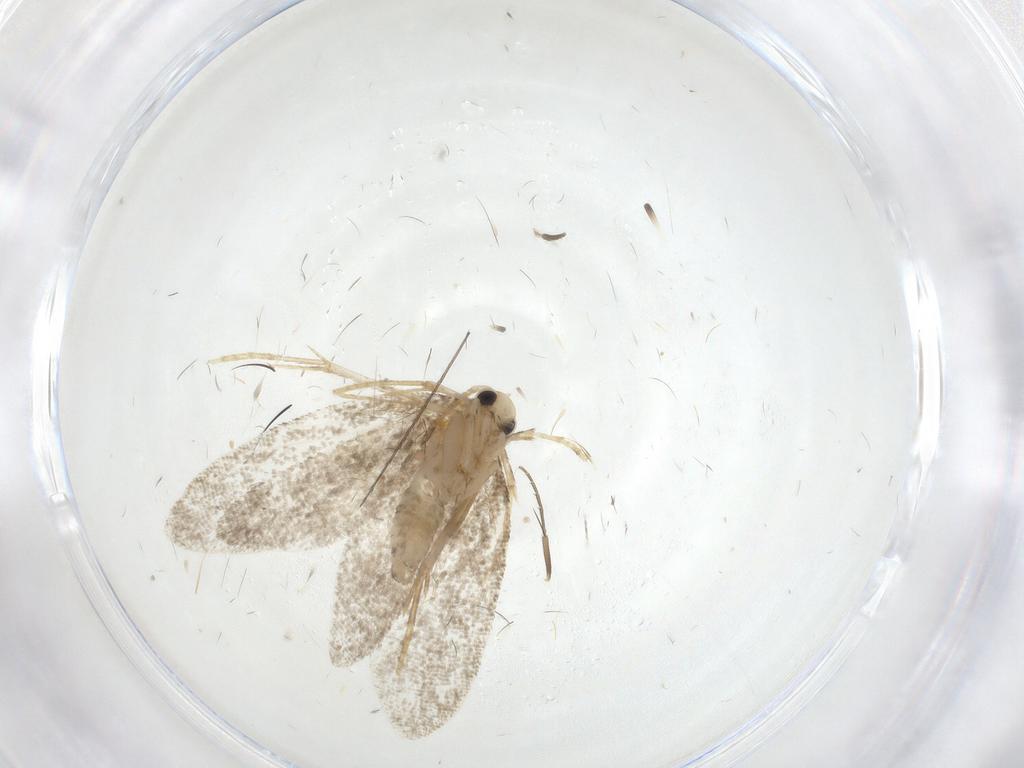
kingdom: Animalia
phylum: Arthropoda
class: Insecta
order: Lepidoptera
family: Psychidae
